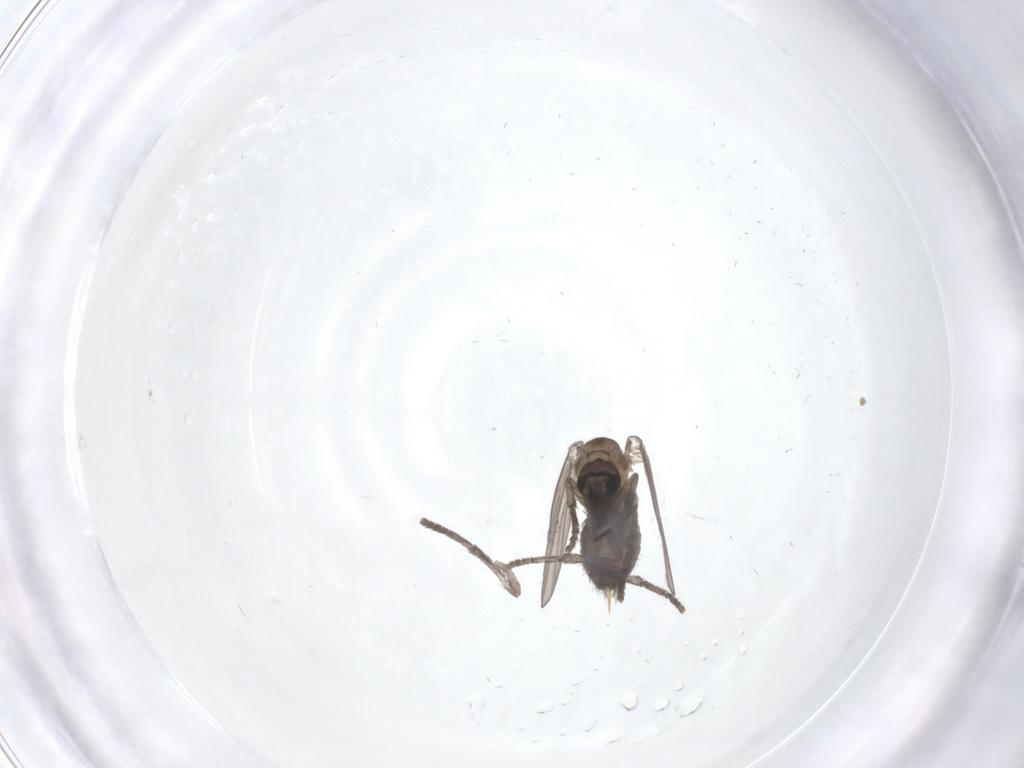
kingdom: Animalia
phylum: Arthropoda
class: Insecta
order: Diptera
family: Psychodidae
